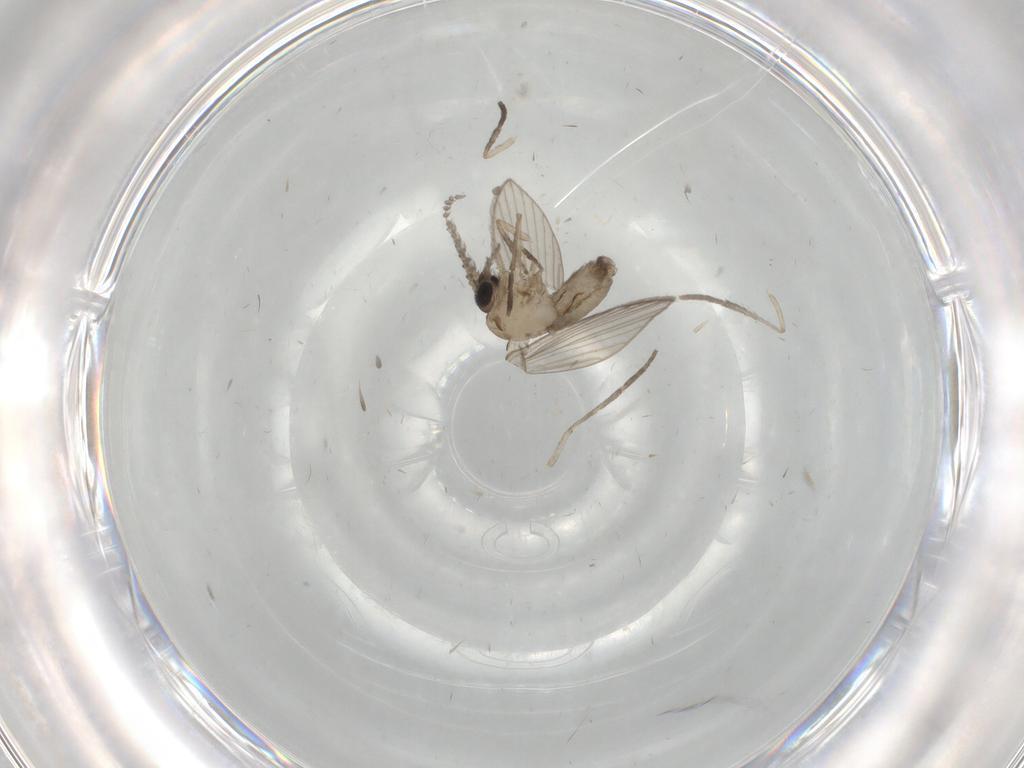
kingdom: Animalia
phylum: Arthropoda
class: Insecta
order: Diptera
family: Psychodidae
